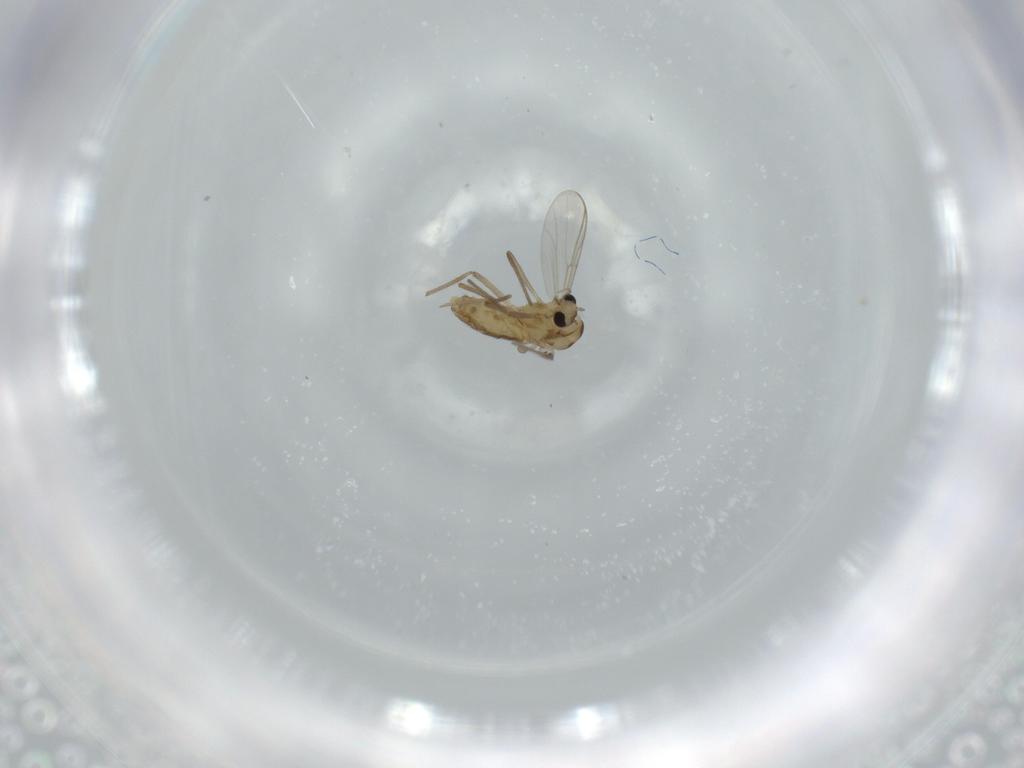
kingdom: Animalia
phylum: Arthropoda
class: Insecta
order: Diptera
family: Chironomidae
